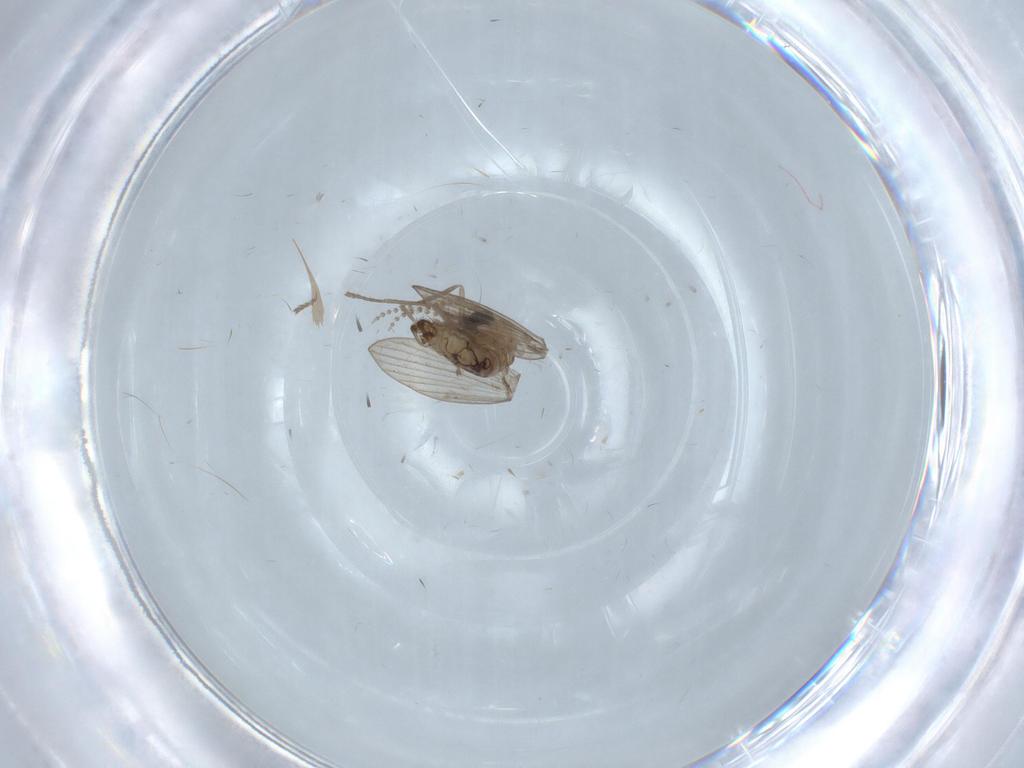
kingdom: Animalia
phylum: Arthropoda
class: Insecta
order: Diptera
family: Psychodidae
